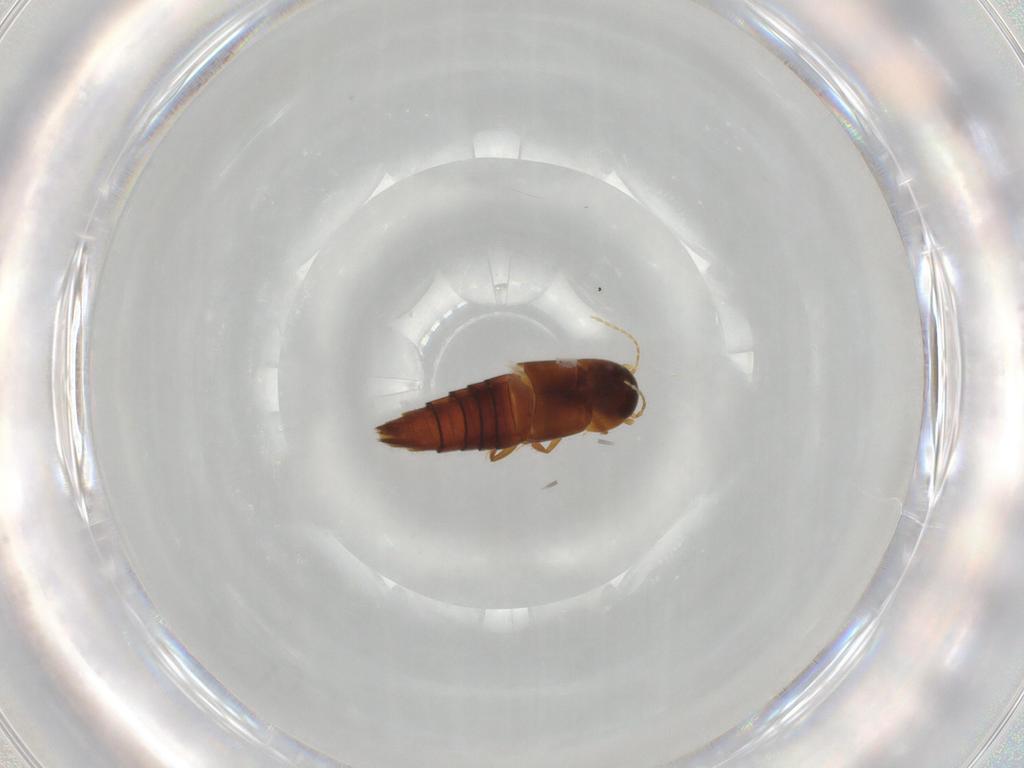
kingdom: Animalia
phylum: Arthropoda
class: Insecta
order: Coleoptera
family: Staphylinidae
